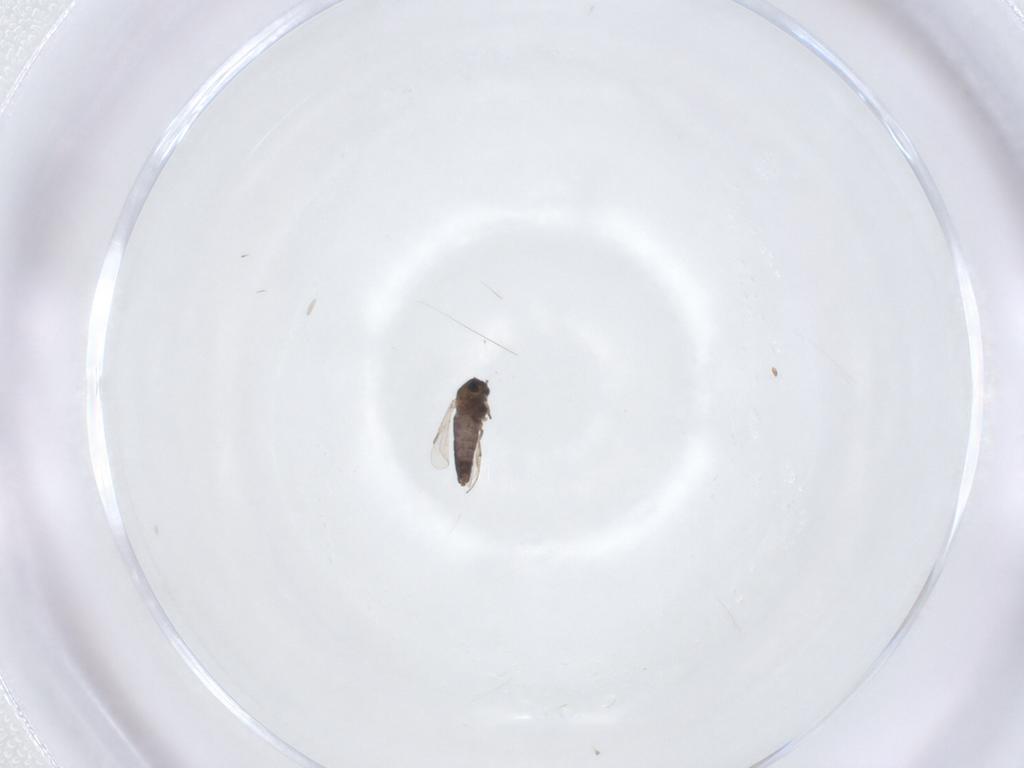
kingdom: Animalia
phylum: Arthropoda
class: Insecta
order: Diptera
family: Chironomidae
